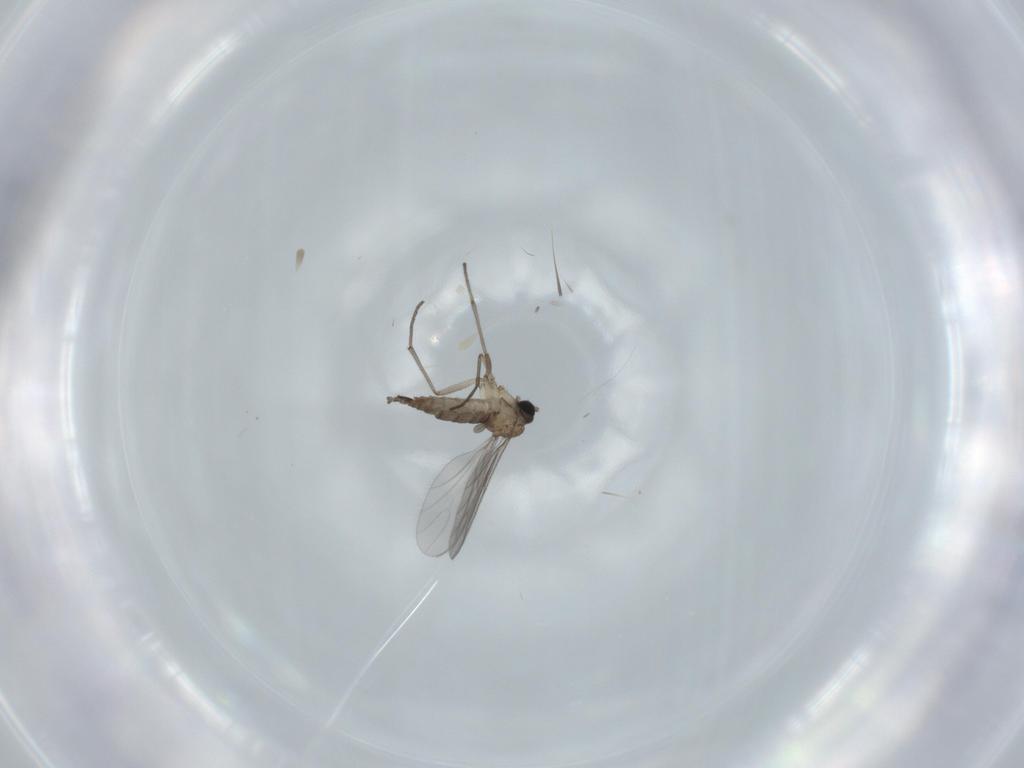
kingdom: Animalia
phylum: Arthropoda
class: Insecta
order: Diptera
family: Sciaridae
